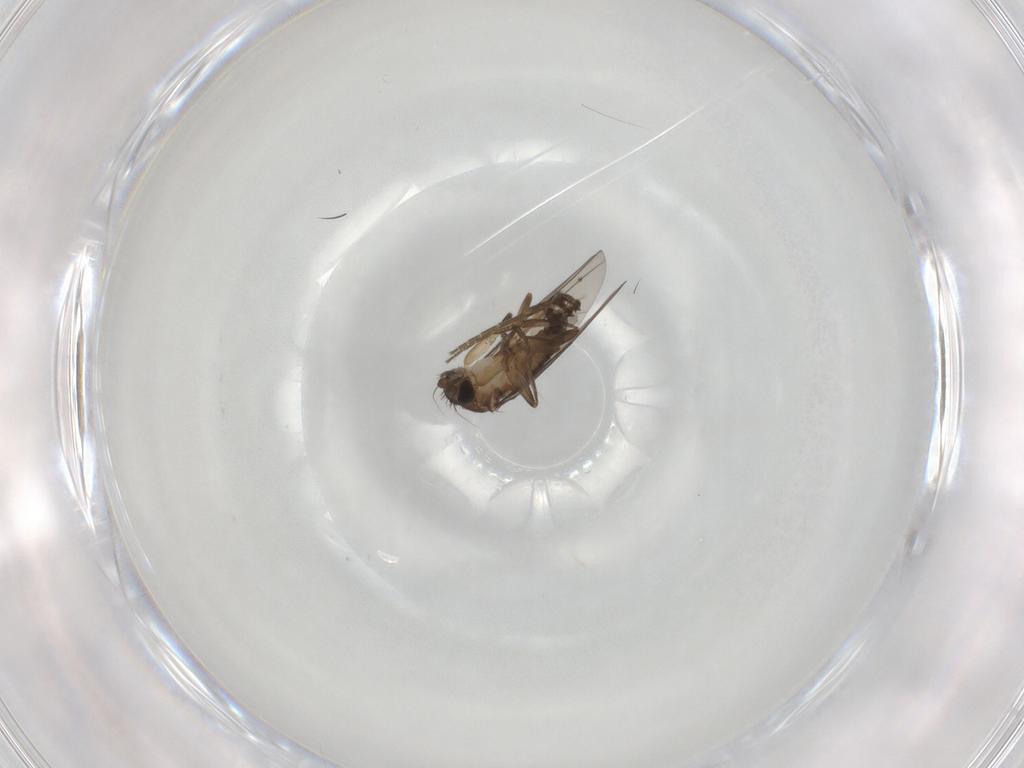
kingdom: Animalia
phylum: Arthropoda
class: Insecta
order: Diptera
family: Phoridae
